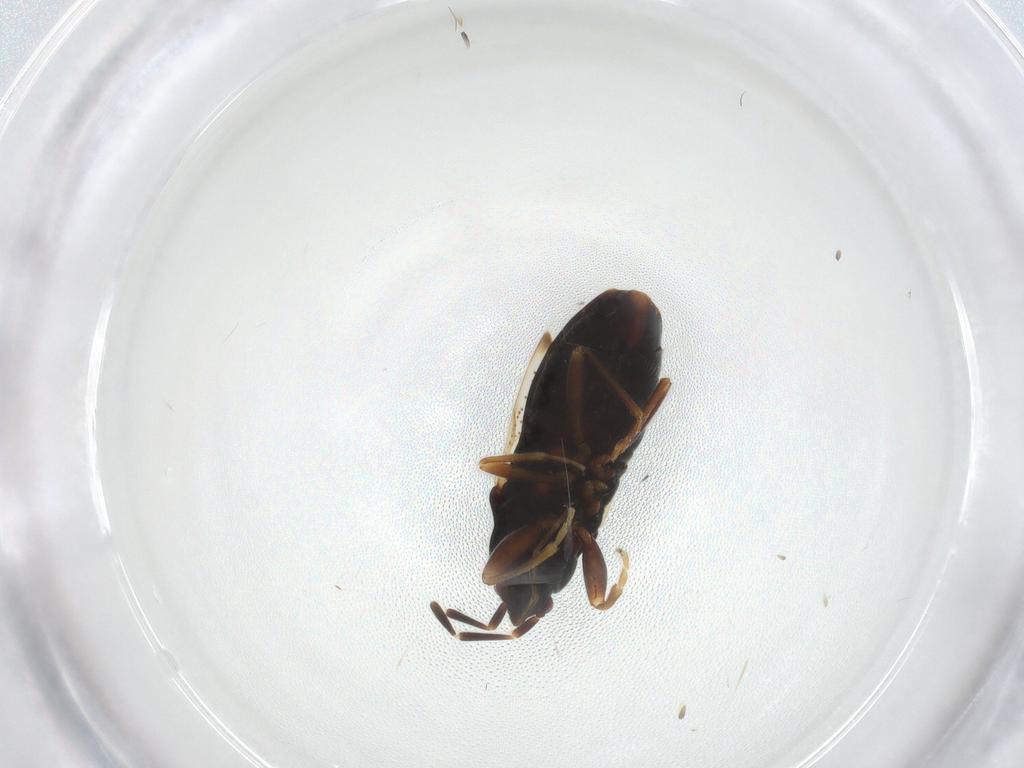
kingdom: Animalia
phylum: Arthropoda
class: Insecta
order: Hemiptera
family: Rhyparochromidae
